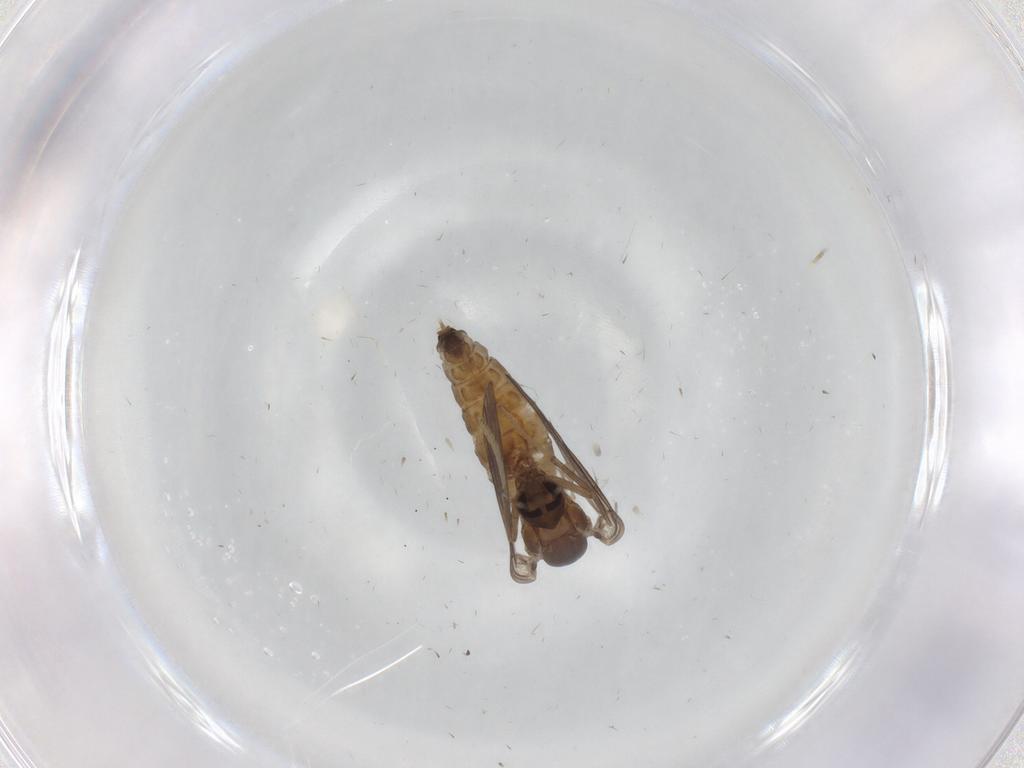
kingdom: Animalia
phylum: Arthropoda
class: Insecta
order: Diptera
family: Psychodidae
